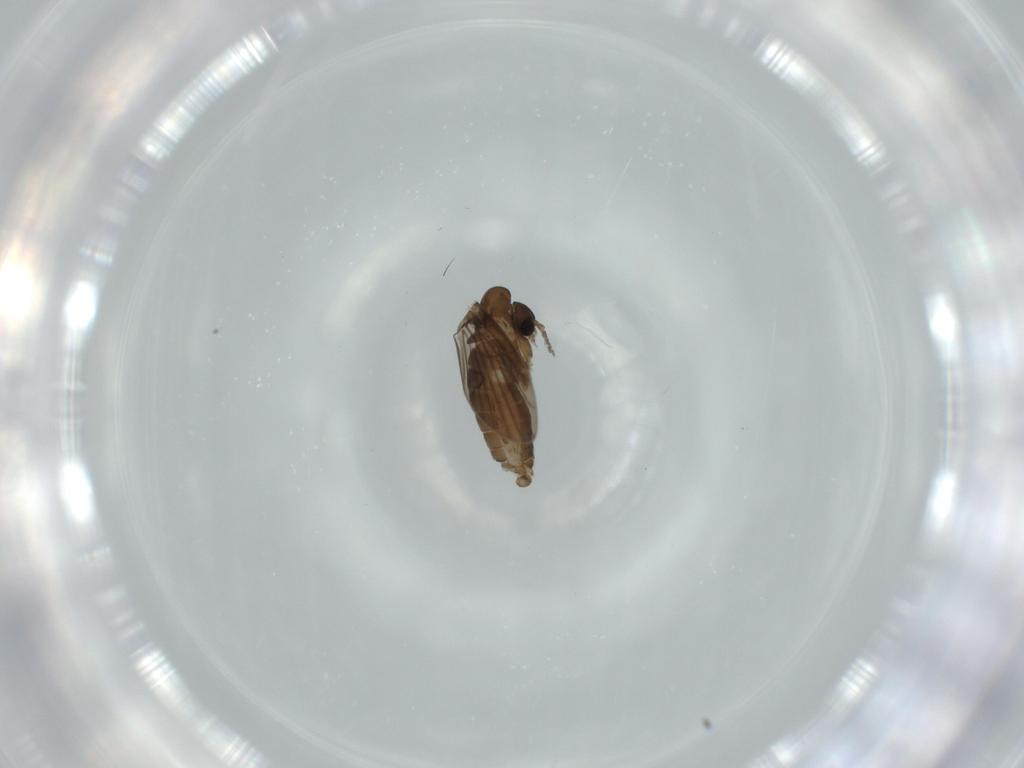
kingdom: Animalia
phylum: Arthropoda
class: Insecta
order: Diptera
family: Psychodidae
